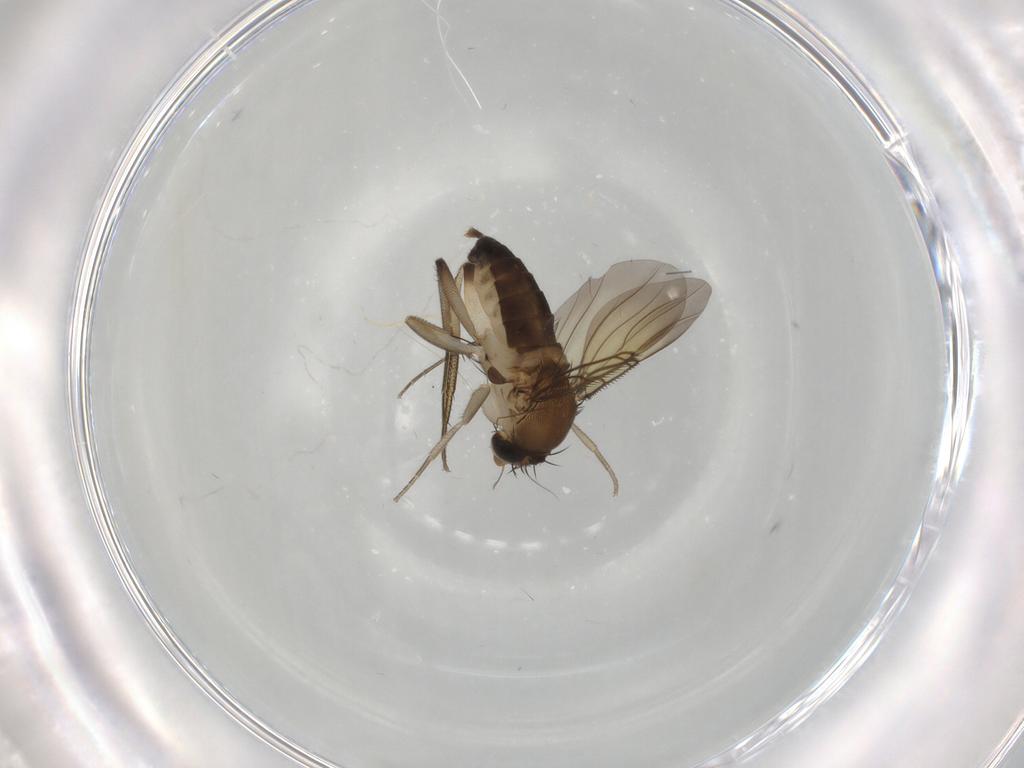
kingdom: Animalia
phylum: Arthropoda
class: Insecta
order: Diptera
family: Phoridae
